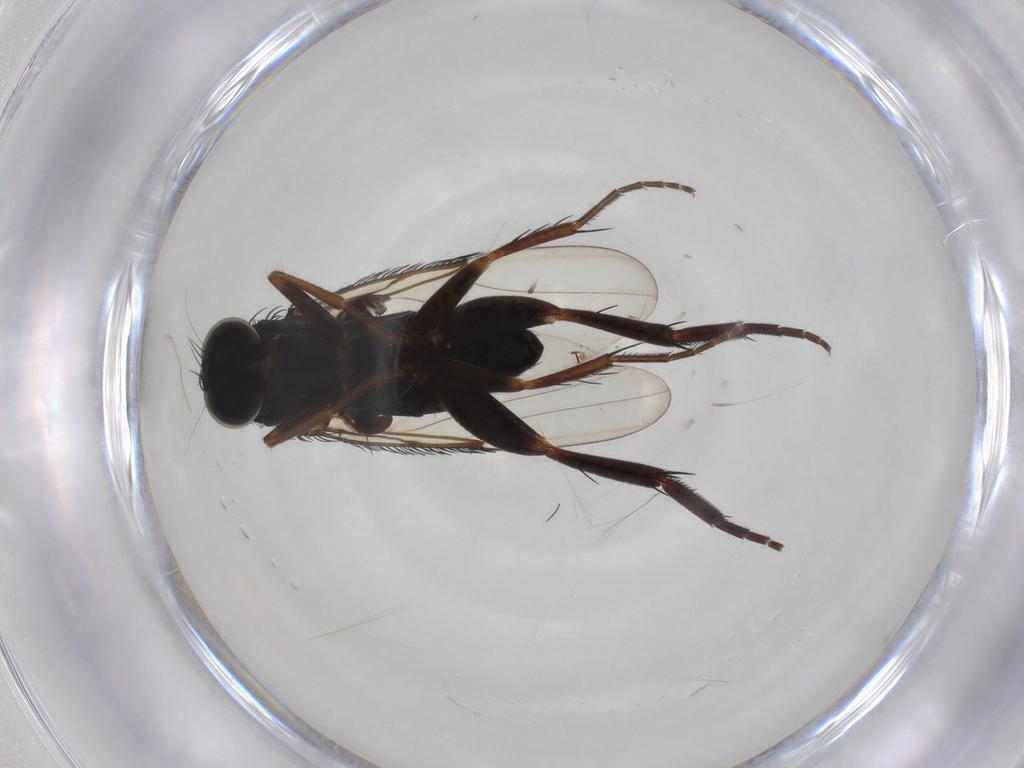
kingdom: Animalia
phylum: Arthropoda
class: Insecta
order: Diptera
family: Phoridae
